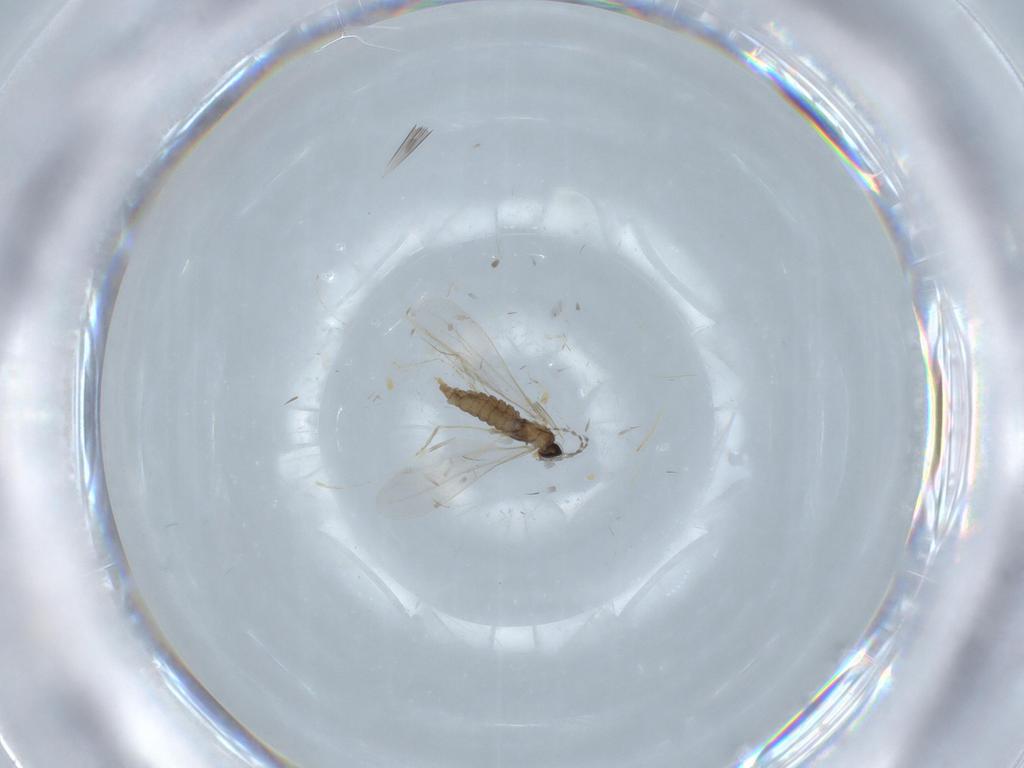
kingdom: Animalia
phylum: Arthropoda
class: Insecta
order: Diptera
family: Cecidomyiidae
